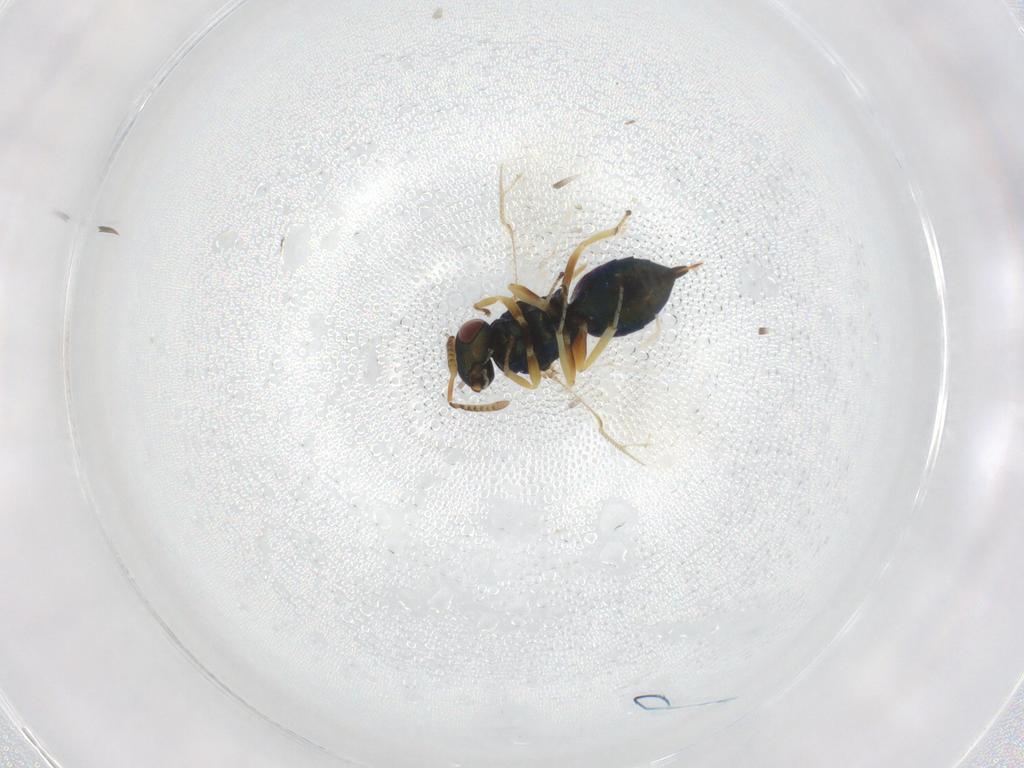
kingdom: Animalia
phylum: Arthropoda
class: Insecta
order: Hymenoptera
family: Pteromalidae
